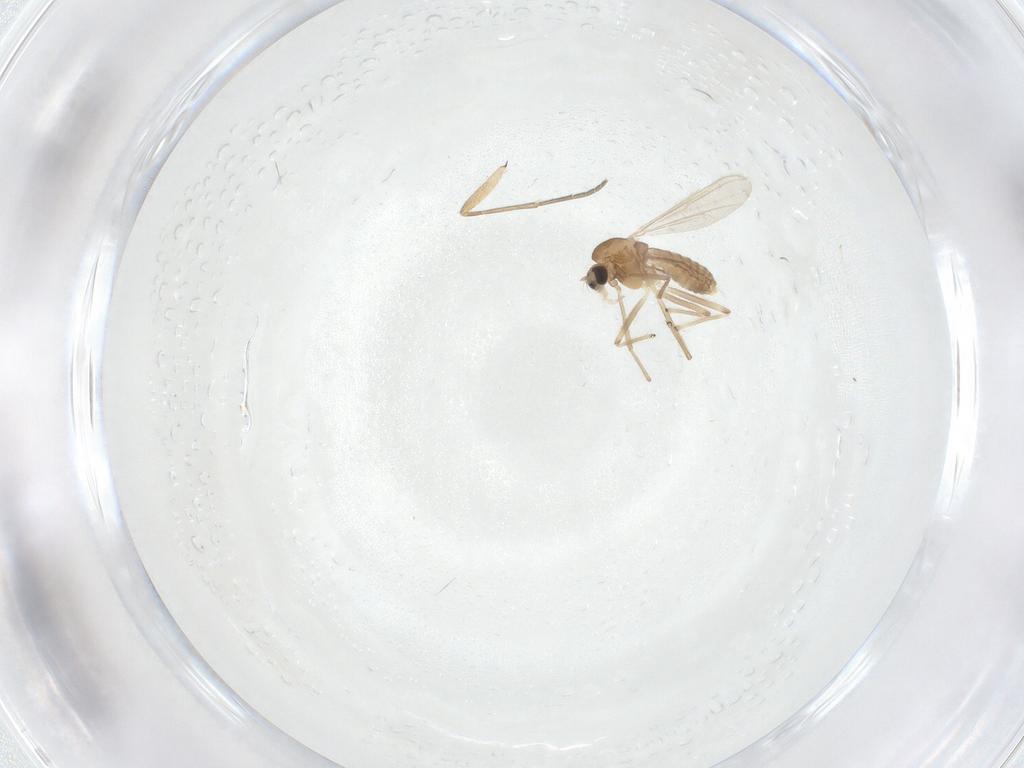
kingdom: Animalia
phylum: Arthropoda
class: Insecta
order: Diptera
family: Chironomidae
